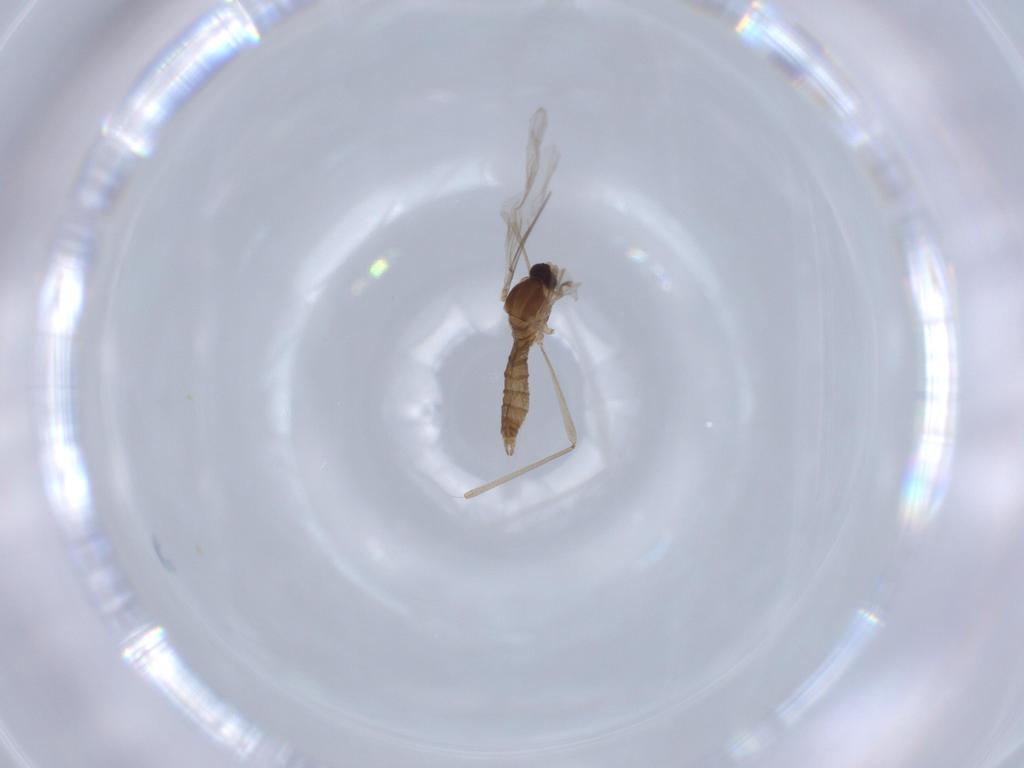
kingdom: Animalia
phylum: Arthropoda
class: Insecta
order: Diptera
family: Cecidomyiidae
